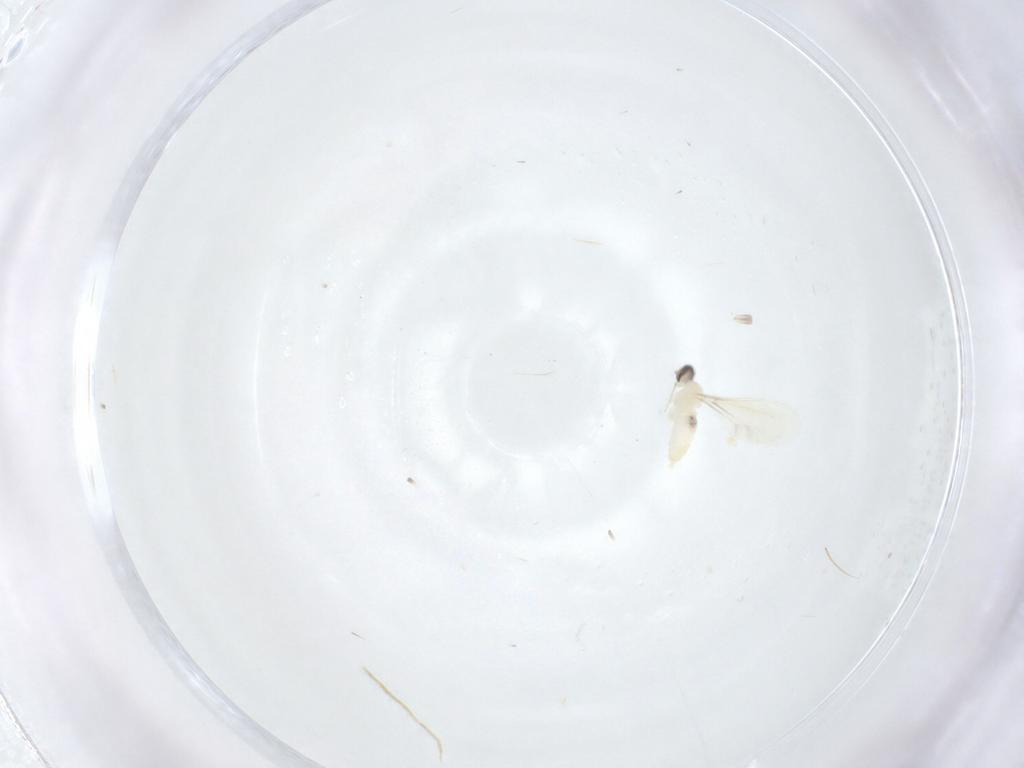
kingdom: Animalia
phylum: Arthropoda
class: Insecta
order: Diptera
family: Cecidomyiidae
